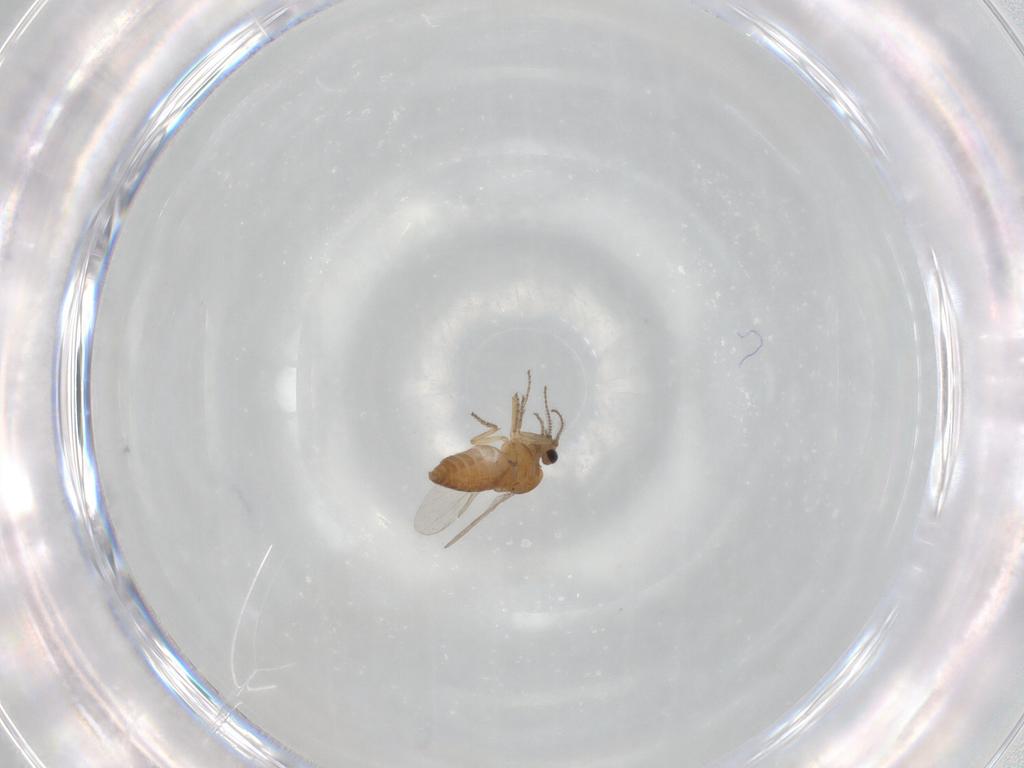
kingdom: Animalia
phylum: Arthropoda
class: Insecta
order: Diptera
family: Ceratopogonidae
